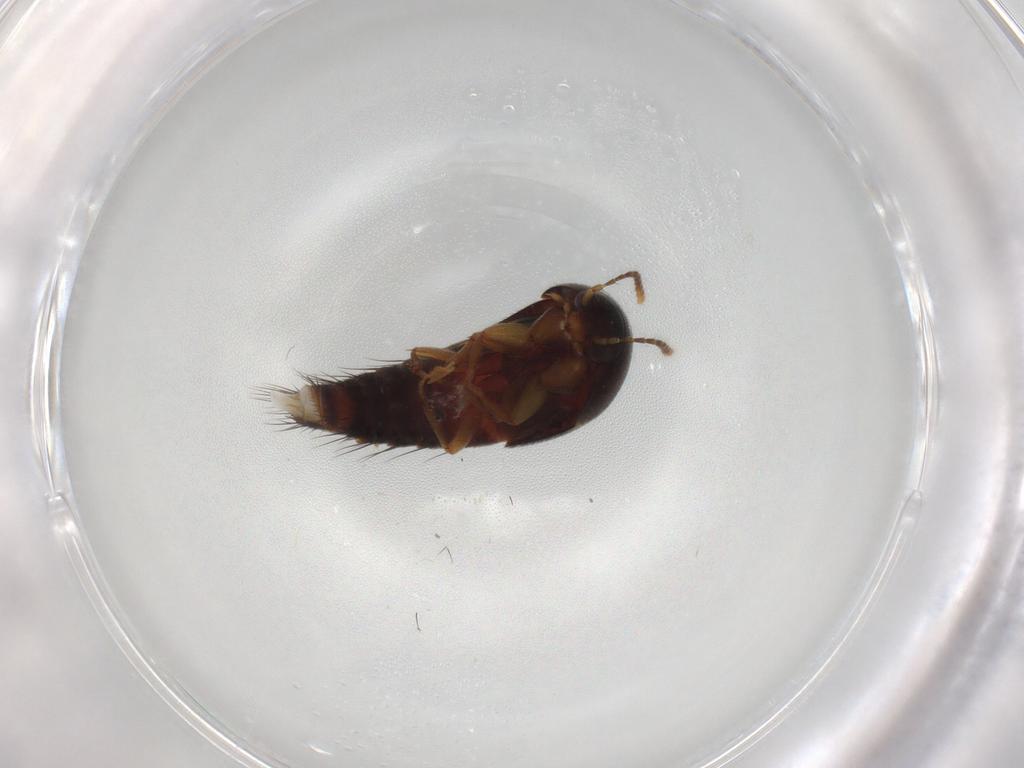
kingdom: Animalia
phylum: Arthropoda
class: Insecta
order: Coleoptera
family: Staphylinidae
